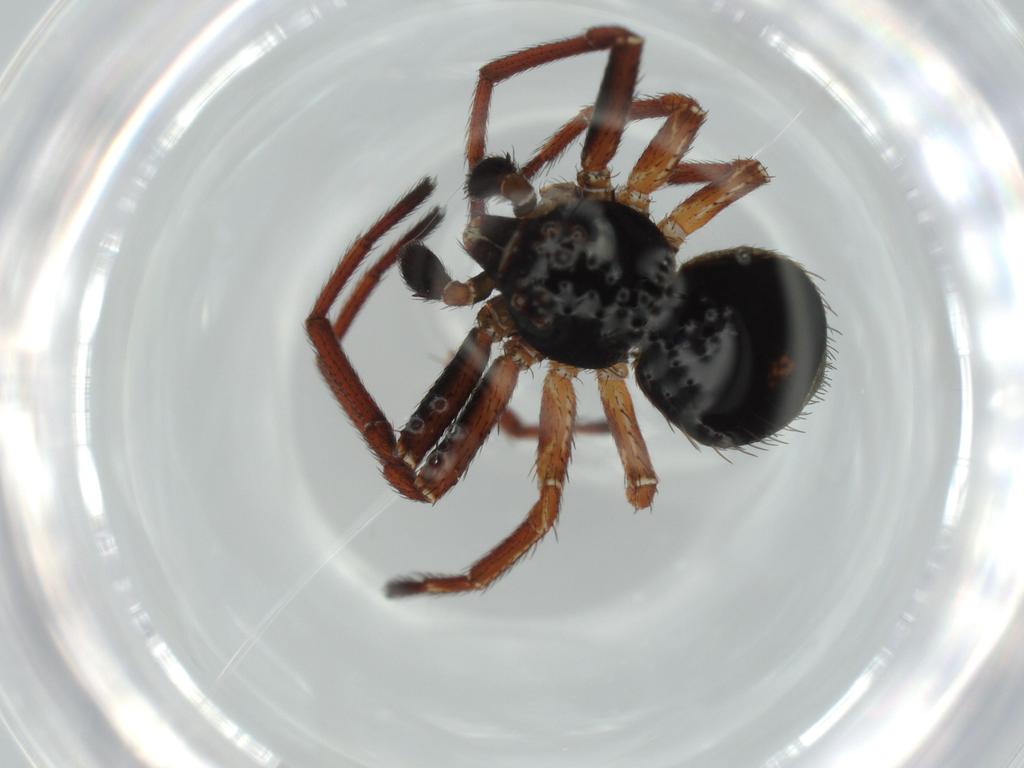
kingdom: Animalia
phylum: Arthropoda
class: Arachnida
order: Araneae
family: Thomisidae
